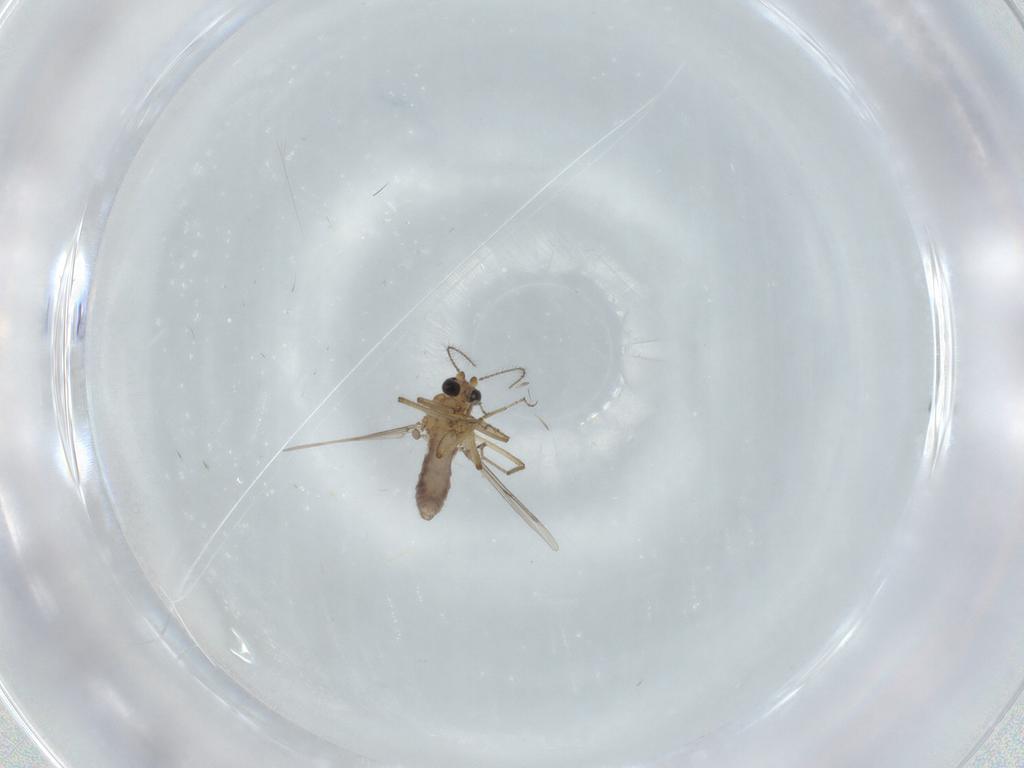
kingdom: Animalia
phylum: Arthropoda
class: Insecta
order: Diptera
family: Ceratopogonidae
